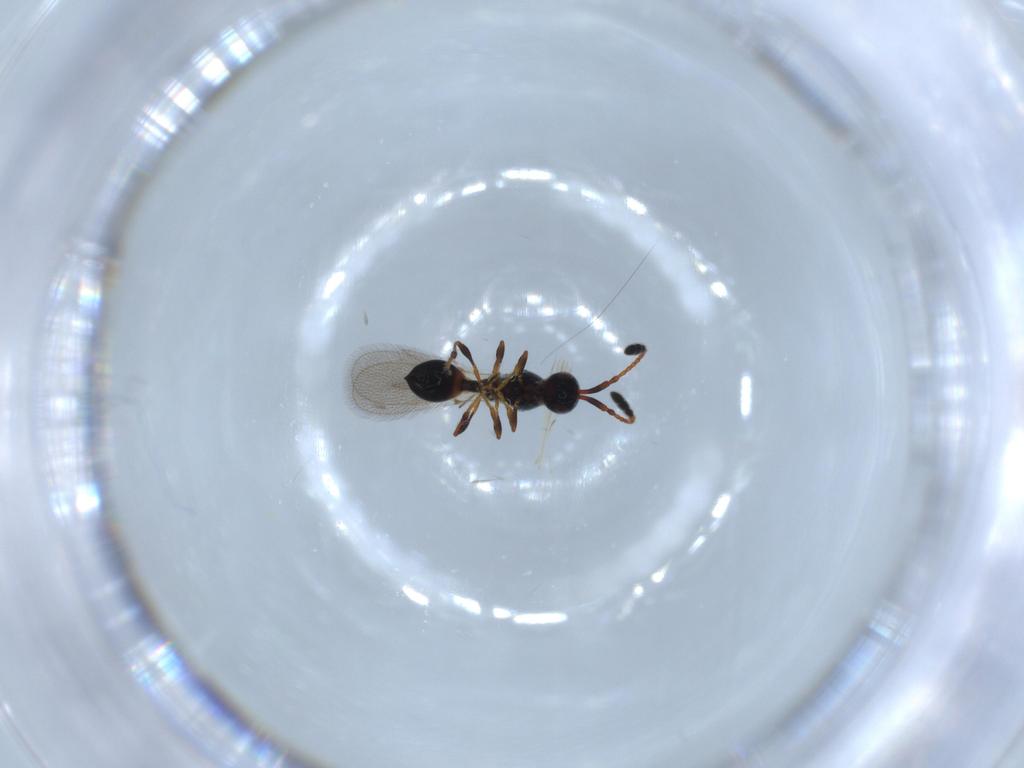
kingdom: Animalia
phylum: Arthropoda
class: Insecta
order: Hymenoptera
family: Diapriidae
